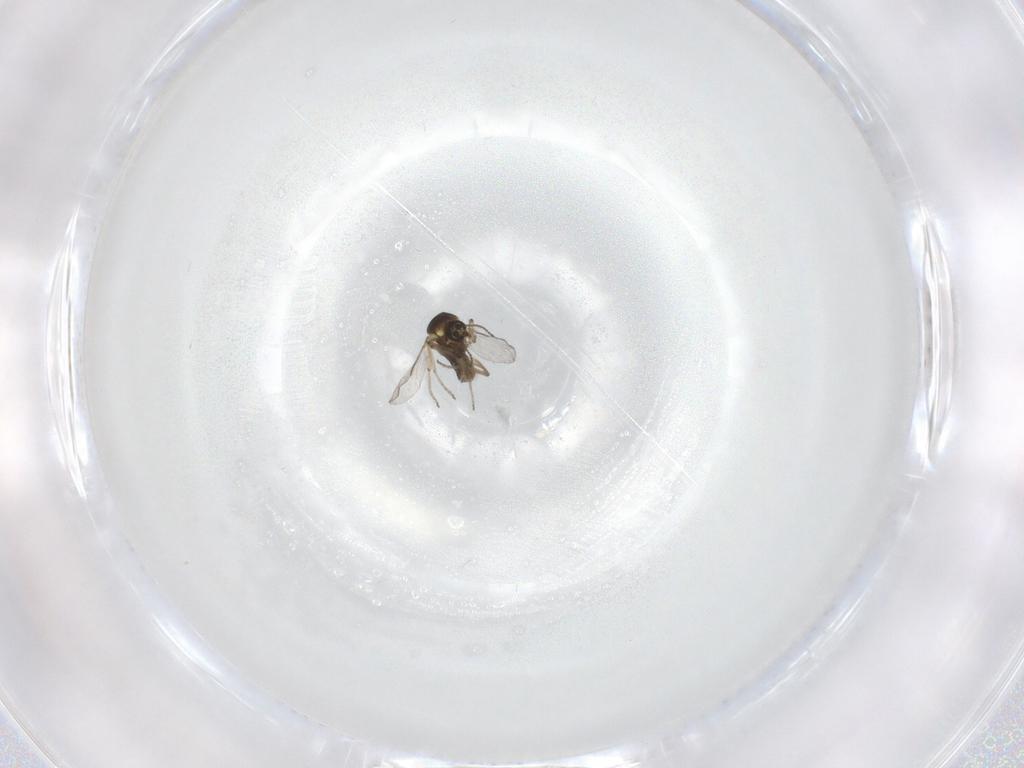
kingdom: Animalia
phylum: Arthropoda
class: Insecta
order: Diptera
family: Ceratopogonidae
